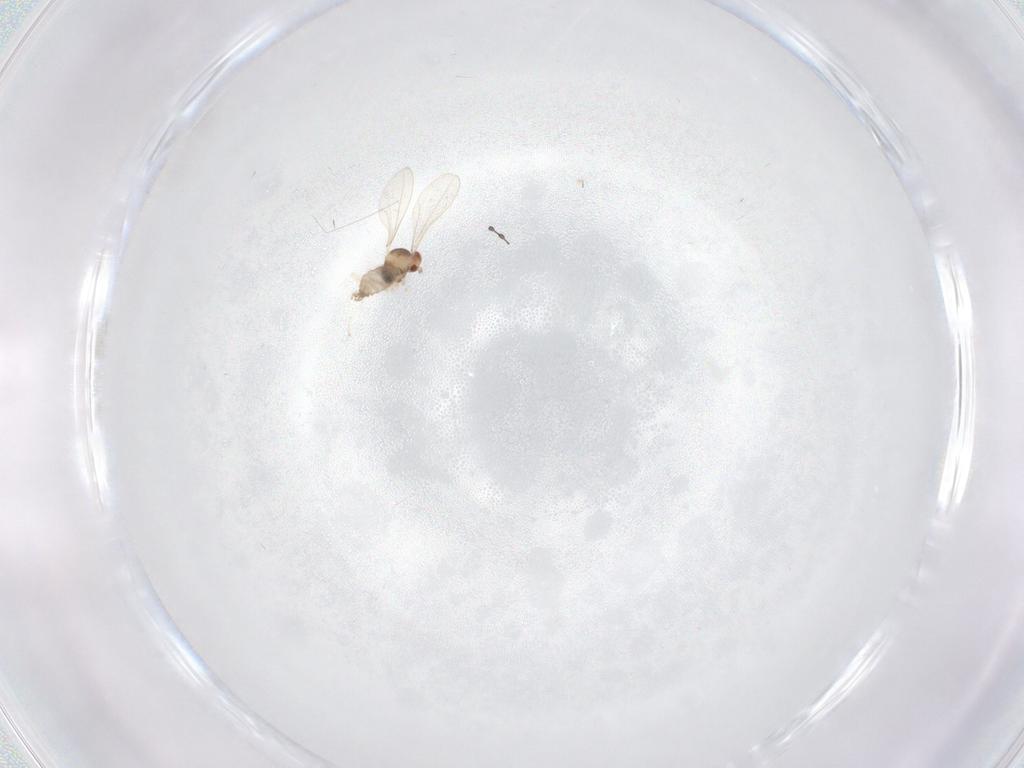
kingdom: Animalia
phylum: Arthropoda
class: Insecta
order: Diptera
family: Cecidomyiidae
